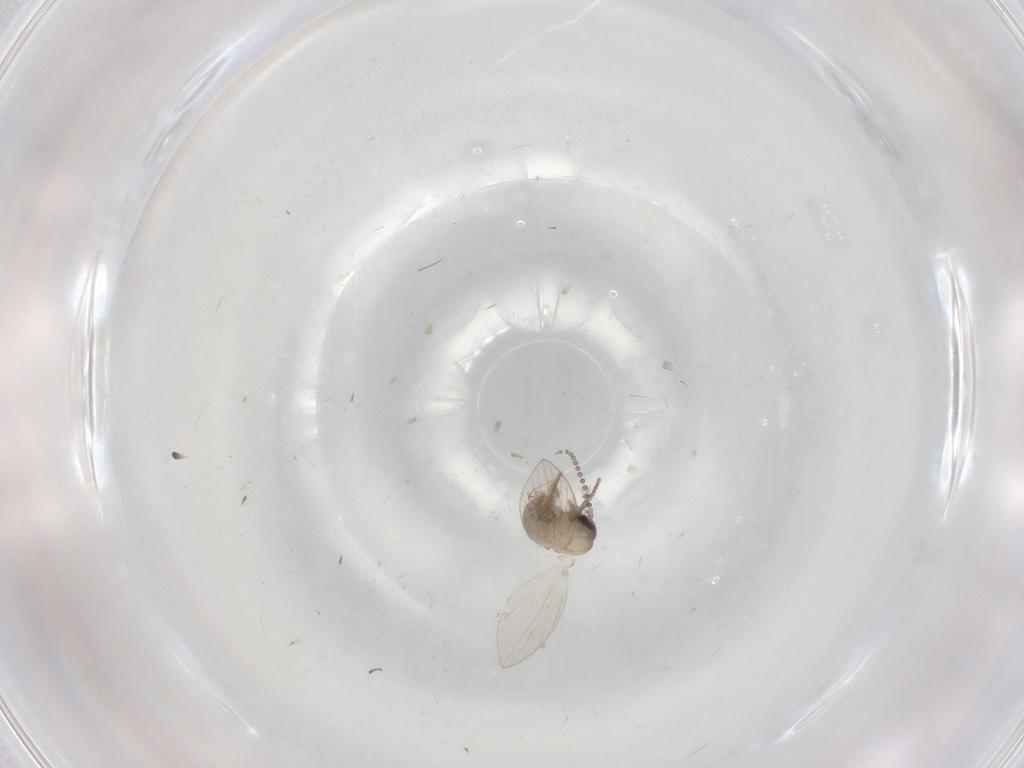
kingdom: Animalia
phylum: Arthropoda
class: Insecta
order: Diptera
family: Psychodidae
